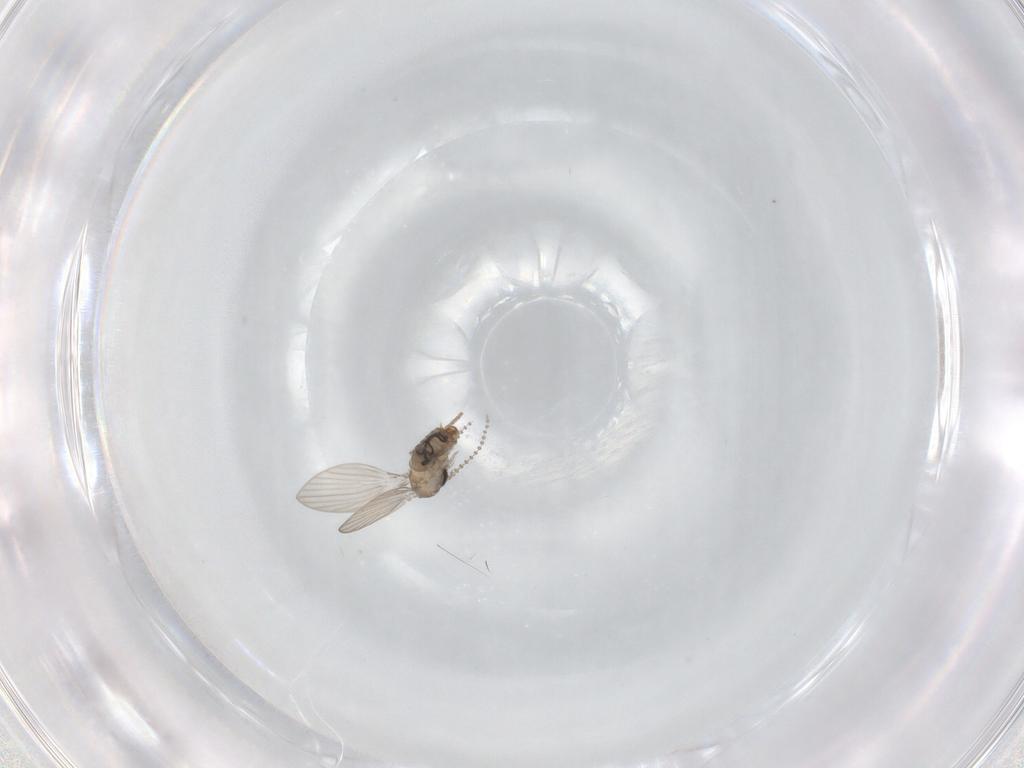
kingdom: Animalia
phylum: Arthropoda
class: Insecta
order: Diptera
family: Psychodidae
